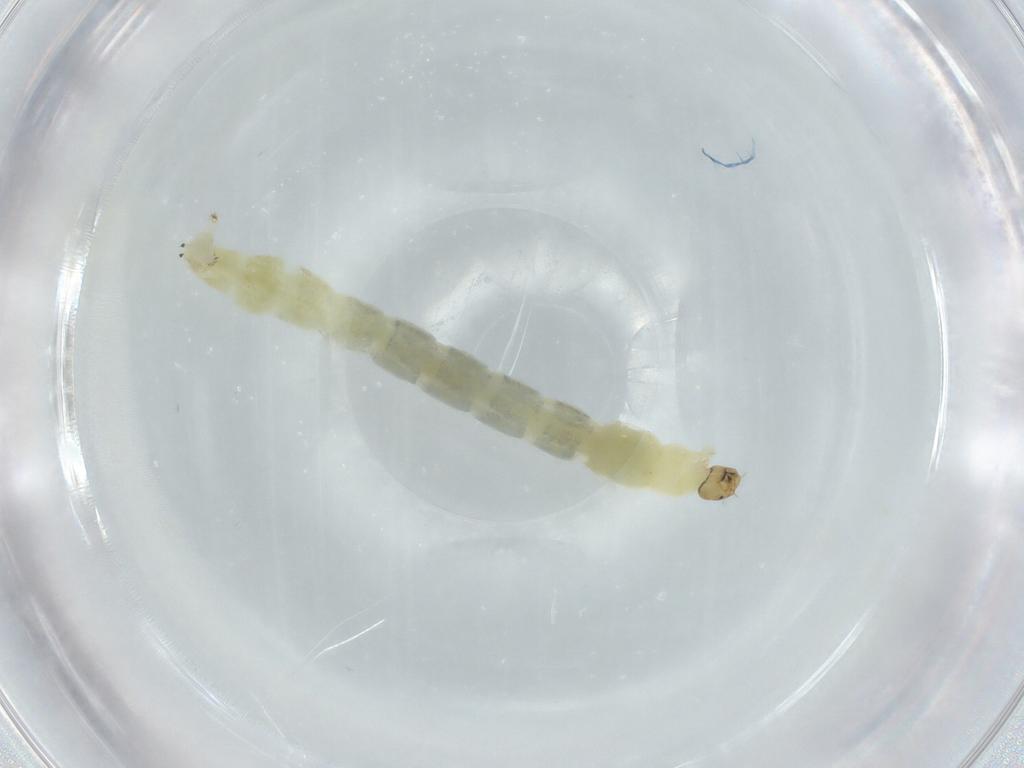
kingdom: Animalia
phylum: Arthropoda
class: Insecta
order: Diptera
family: Chironomidae
